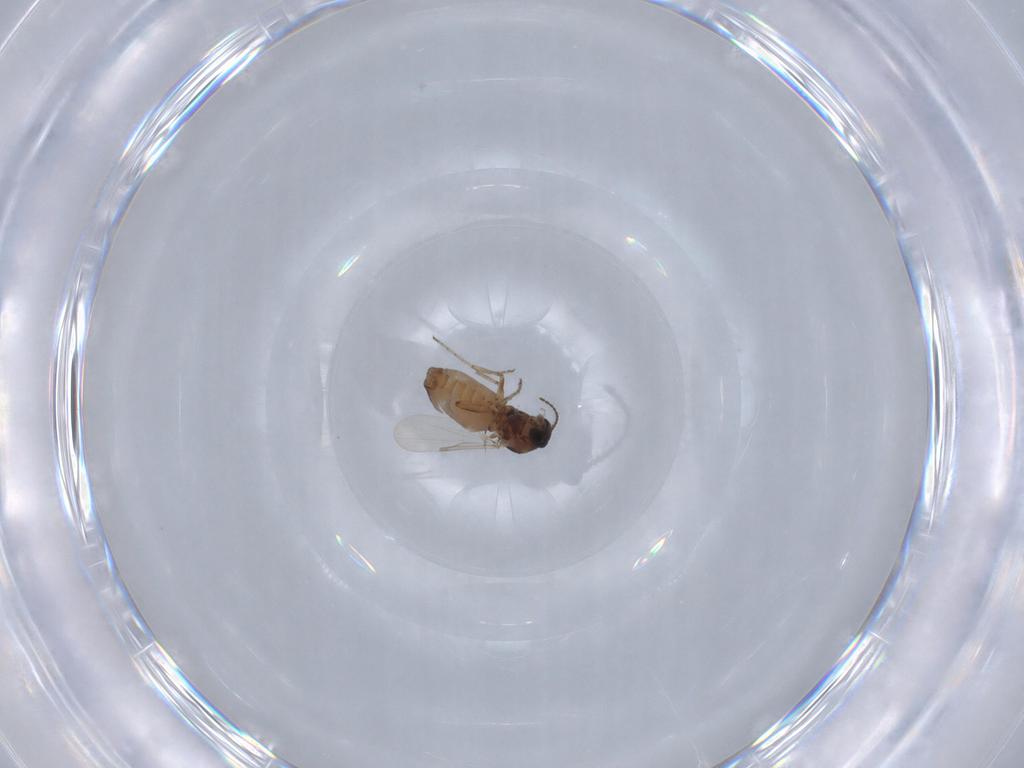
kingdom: Animalia
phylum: Arthropoda
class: Insecta
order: Diptera
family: Ceratopogonidae
